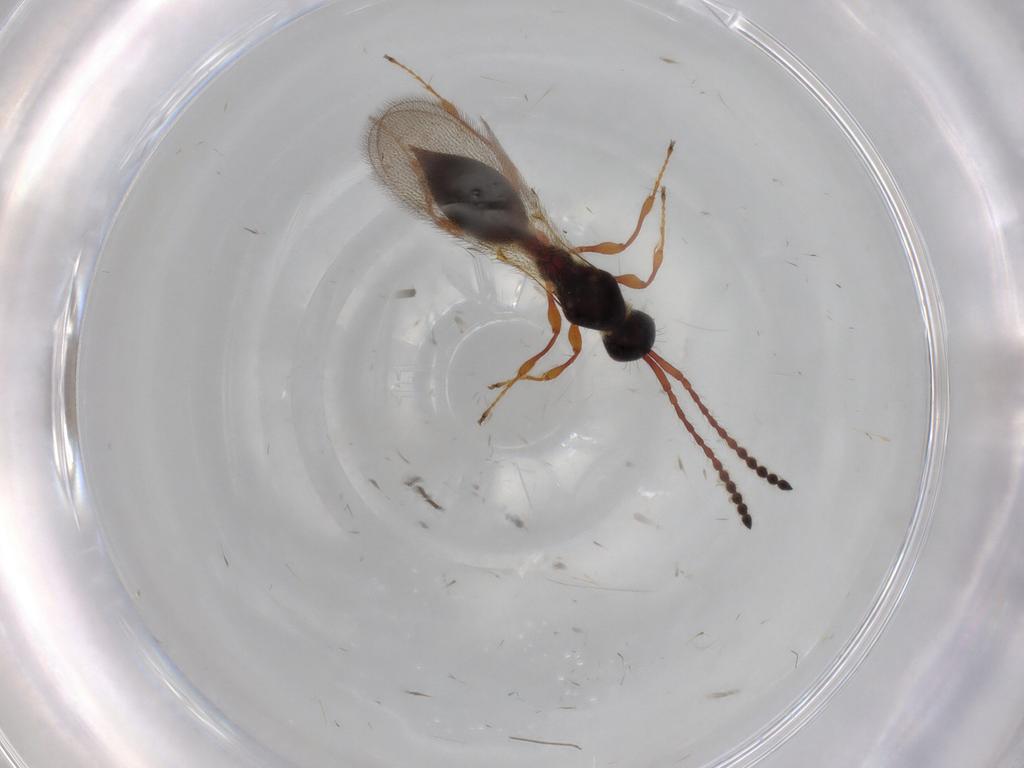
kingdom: Animalia
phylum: Arthropoda
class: Insecta
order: Hymenoptera
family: Diapriidae
